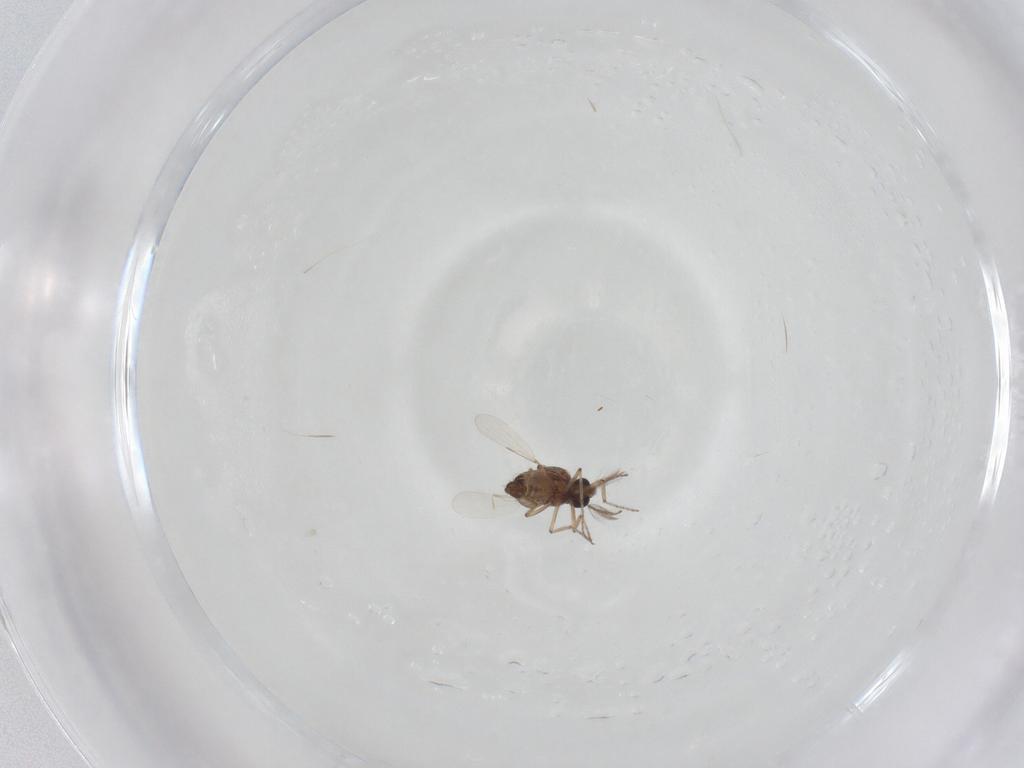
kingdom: Animalia
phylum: Arthropoda
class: Insecta
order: Diptera
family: Ceratopogonidae
